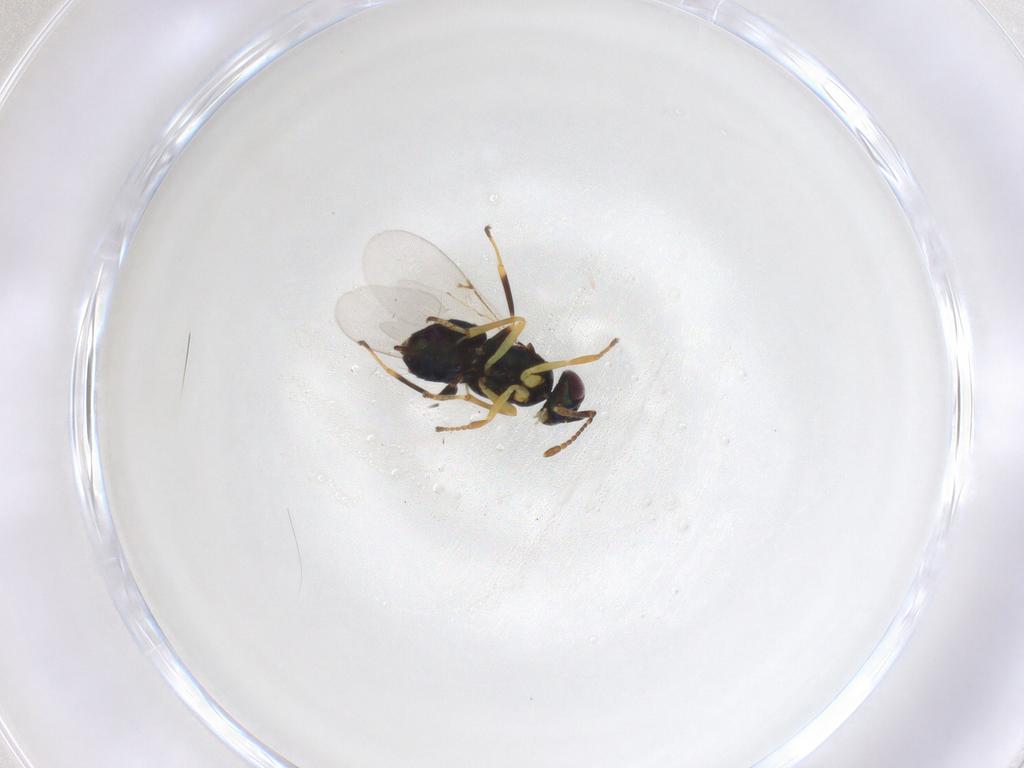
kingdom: Animalia
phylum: Arthropoda
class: Insecta
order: Hymenoptera
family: Encyrtidae
